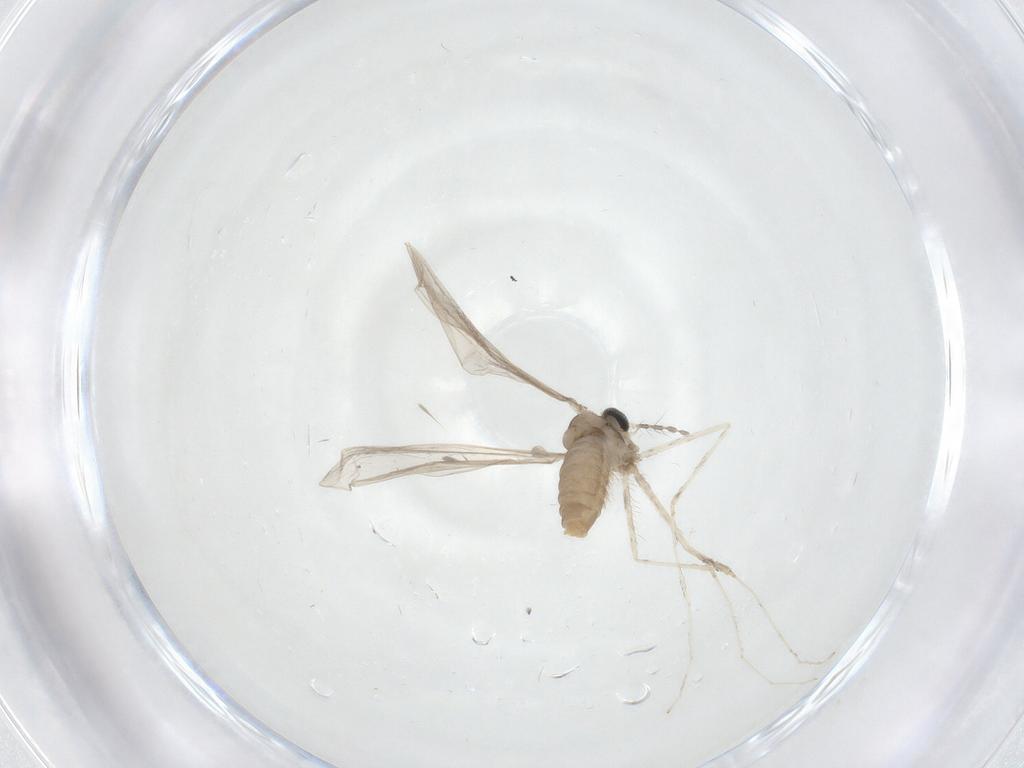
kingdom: Animalia
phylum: Arthropoda
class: Insecta
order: Diptera
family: Cecidomyiidae
